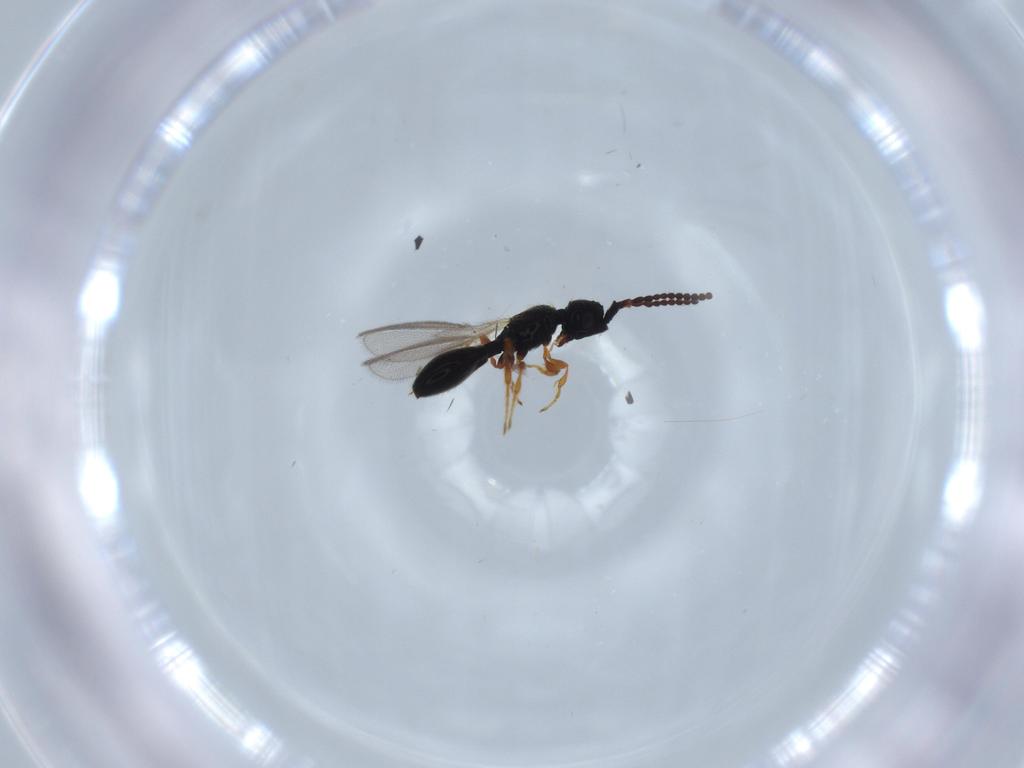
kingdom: Animalia
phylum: Arthropoda
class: Insecta
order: Hymenoptera
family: Diapriidae
